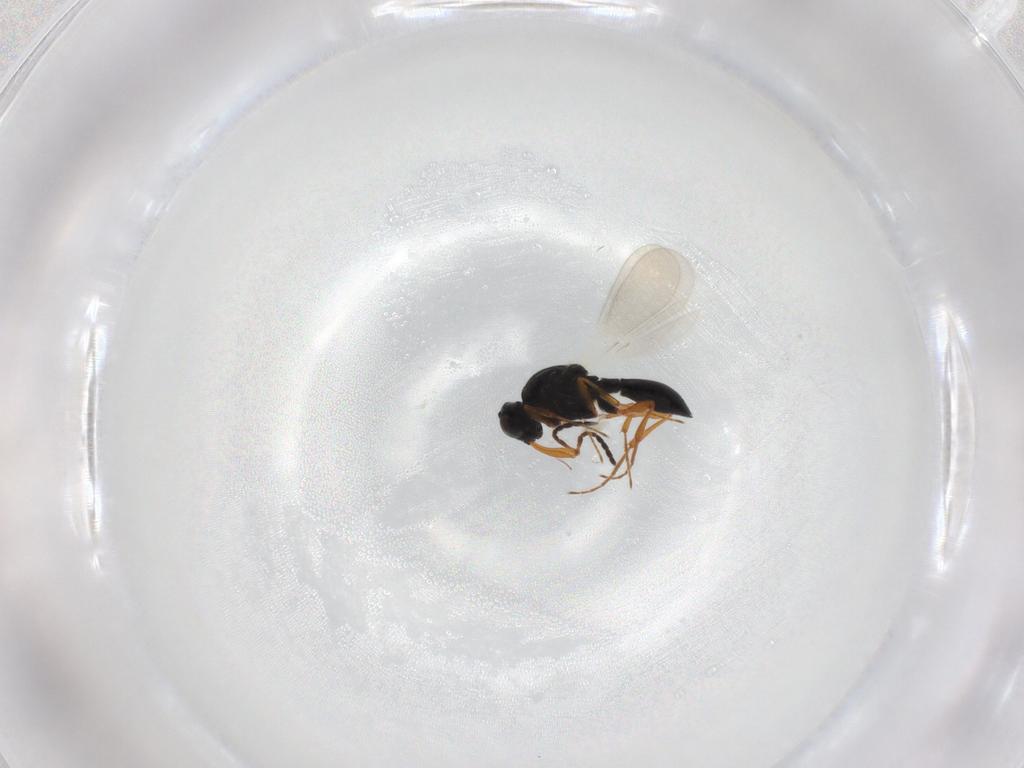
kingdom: Animalia
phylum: Arthropoda
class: Insecta
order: Hymenoptera
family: Platygastridae
